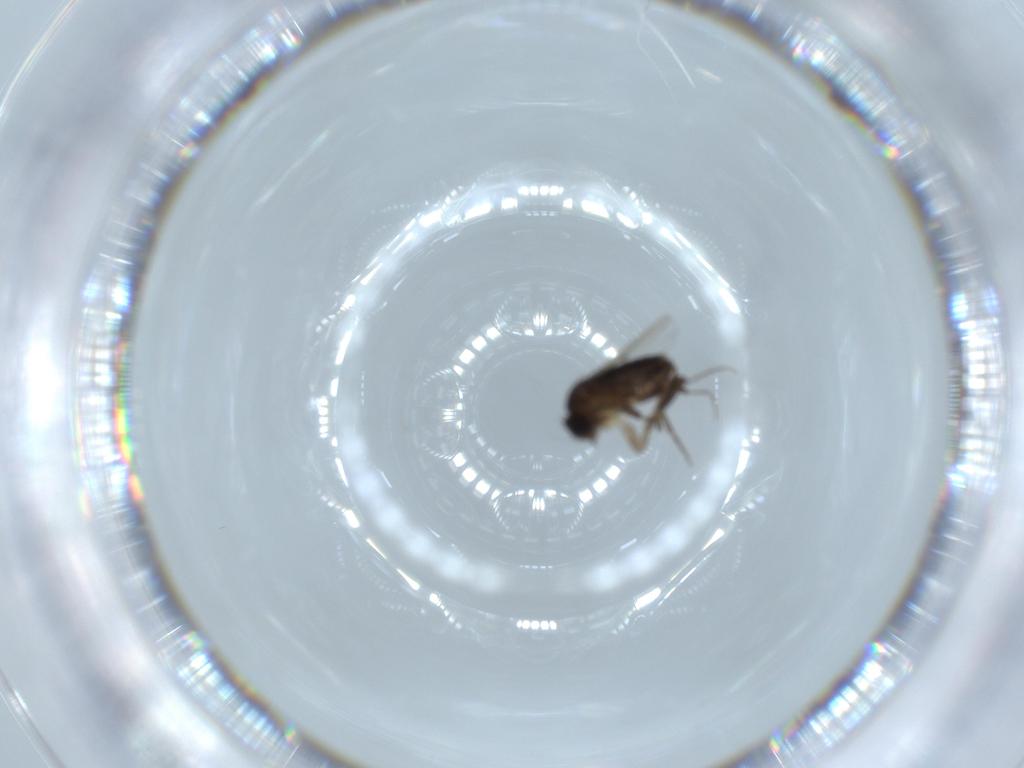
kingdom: Animalia
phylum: Arthropoda
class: Insecta
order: Diptera
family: Phoridae
